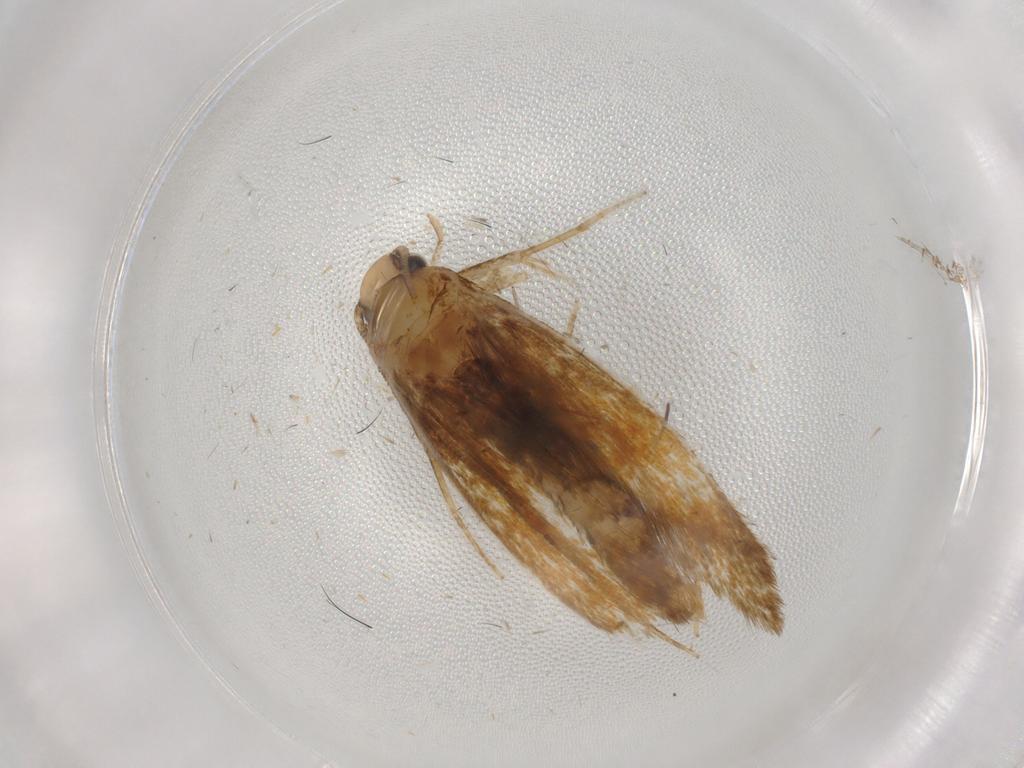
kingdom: Animalia
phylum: Arthropoda
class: Insecta
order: Lepidoptera
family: Tineidae
